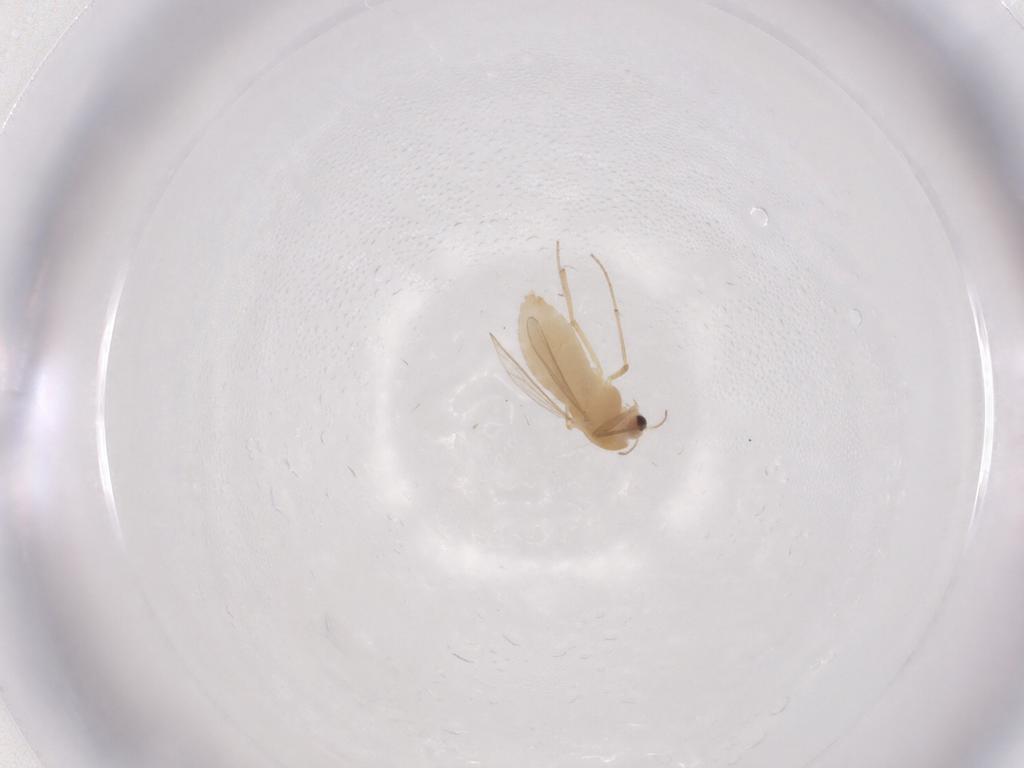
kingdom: Animalia
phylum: Arthropoda
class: Insecta
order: Diptera
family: Chironomidae
